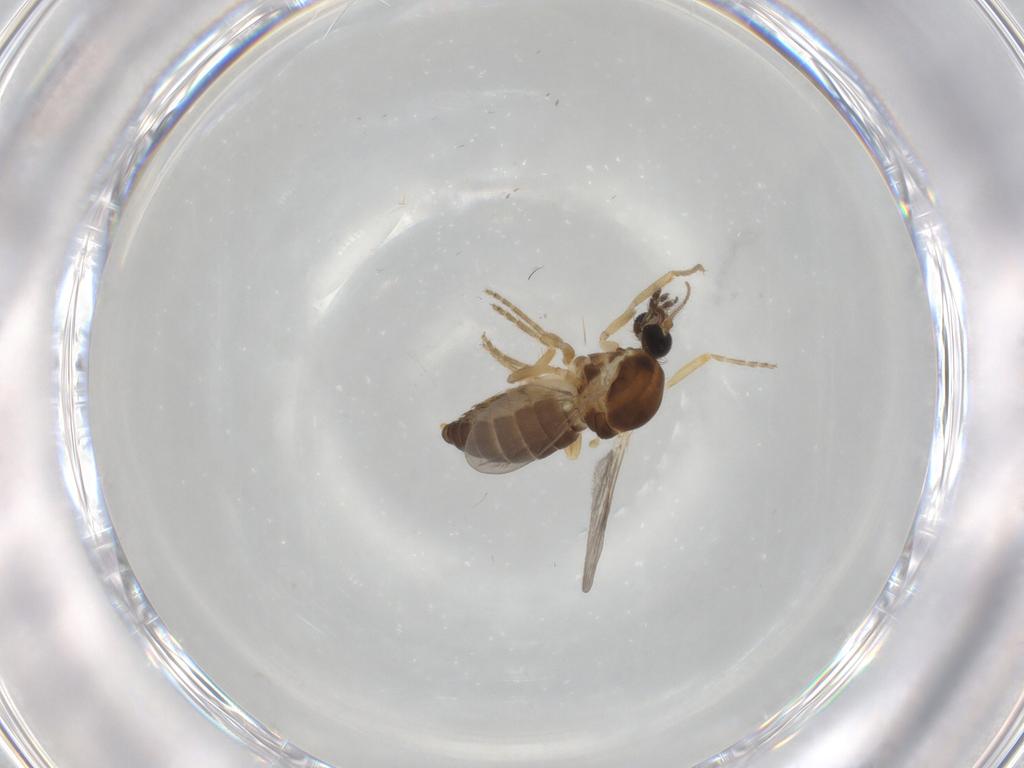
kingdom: Animalia
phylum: Arthropoda
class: Insecta
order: Diptera
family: Ceratopogonidae
